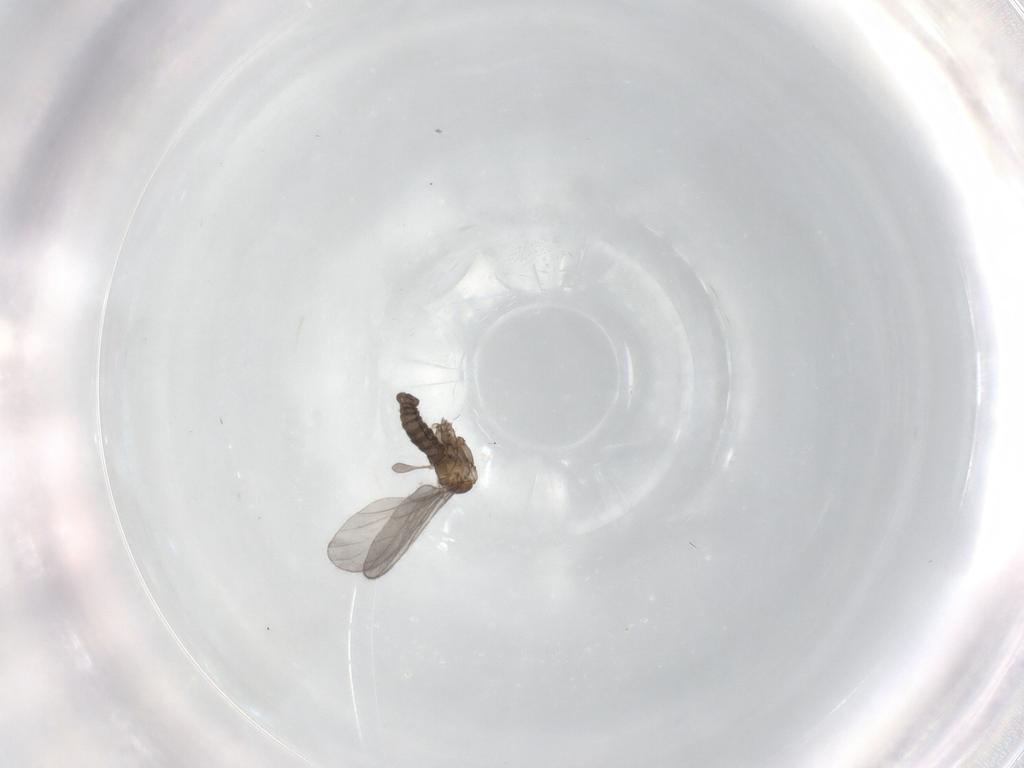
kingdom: Animalia
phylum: Arthropoda
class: Insecta
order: Diptera
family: Sciaridae
